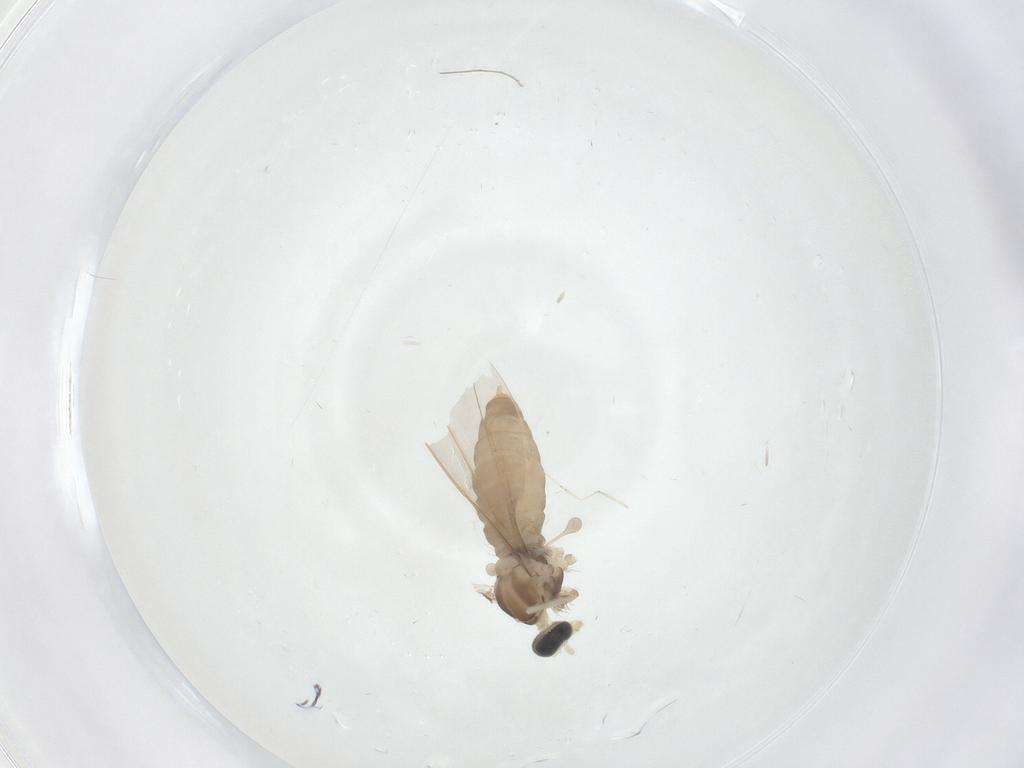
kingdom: Animalia
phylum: Arthropoda
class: Insecta
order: Diptera
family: Cecidomyiidae
